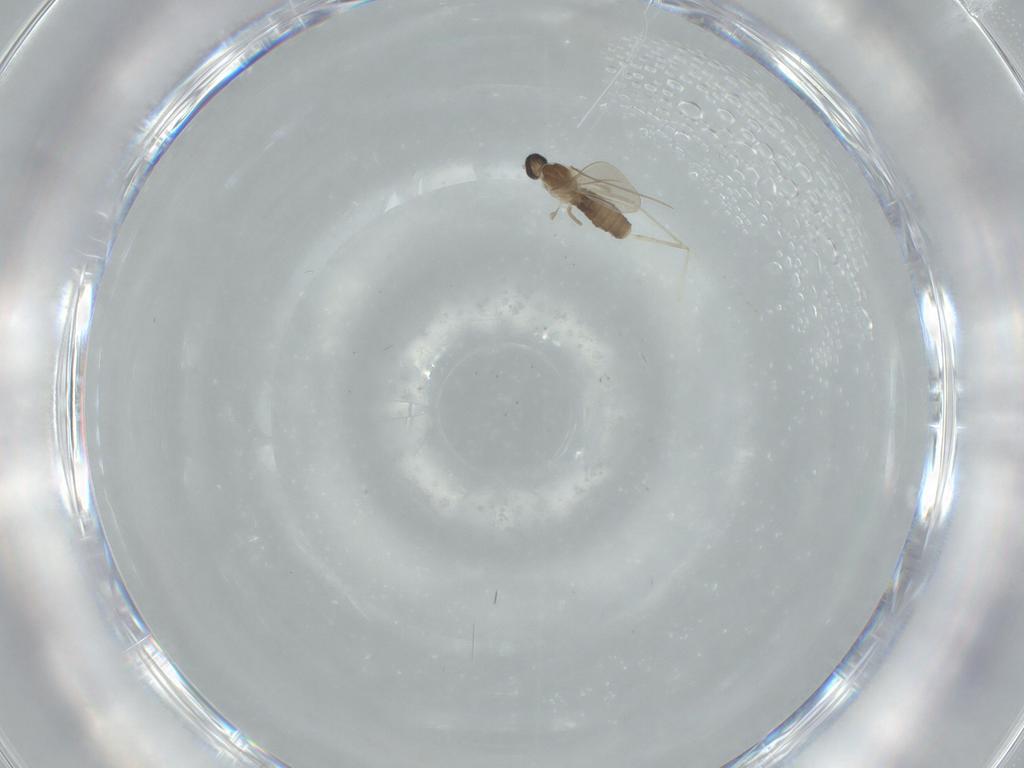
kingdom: Animalia
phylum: Arthropoda
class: Insecta
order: Diptera
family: Cecidomyiidae
